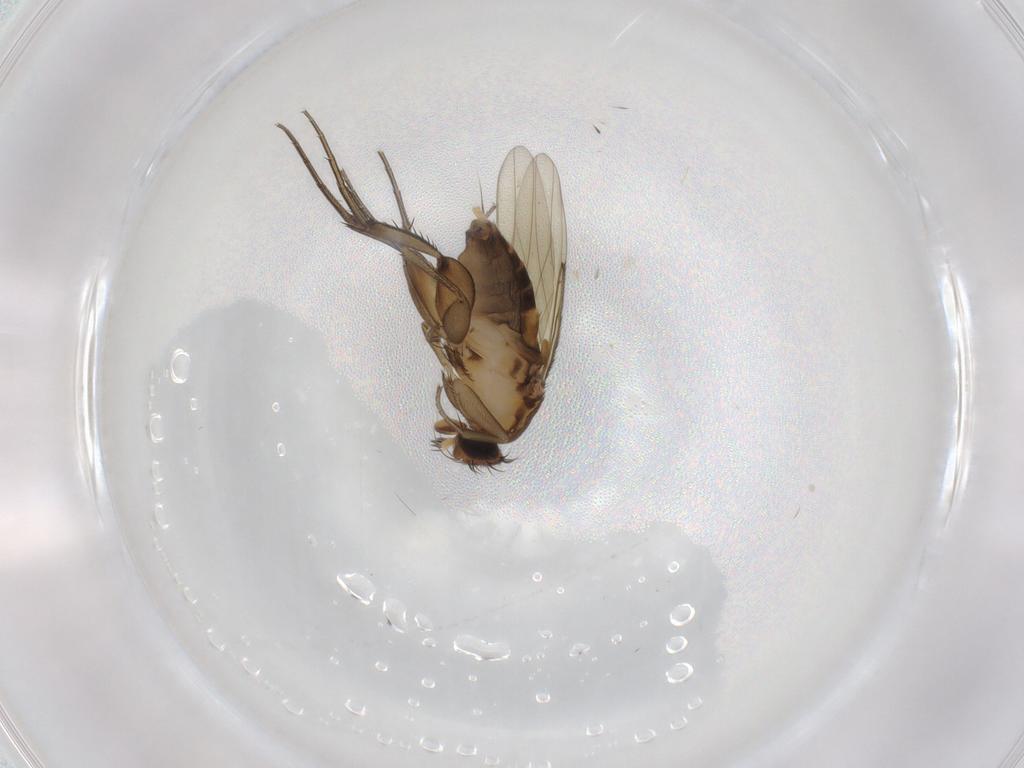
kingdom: Animalia
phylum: Arthropoda
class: Insecta
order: Diptera
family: Phoridae
